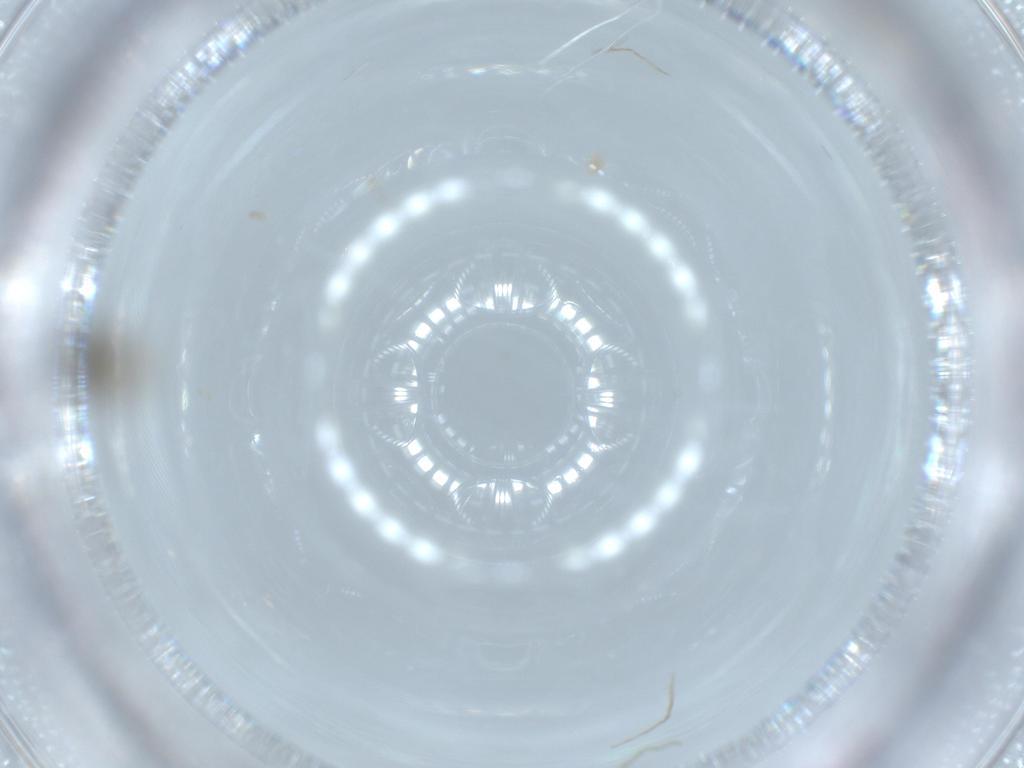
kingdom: Animalia
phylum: Arthropoda
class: Insecta
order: Hymenoptera
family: Torymidae
